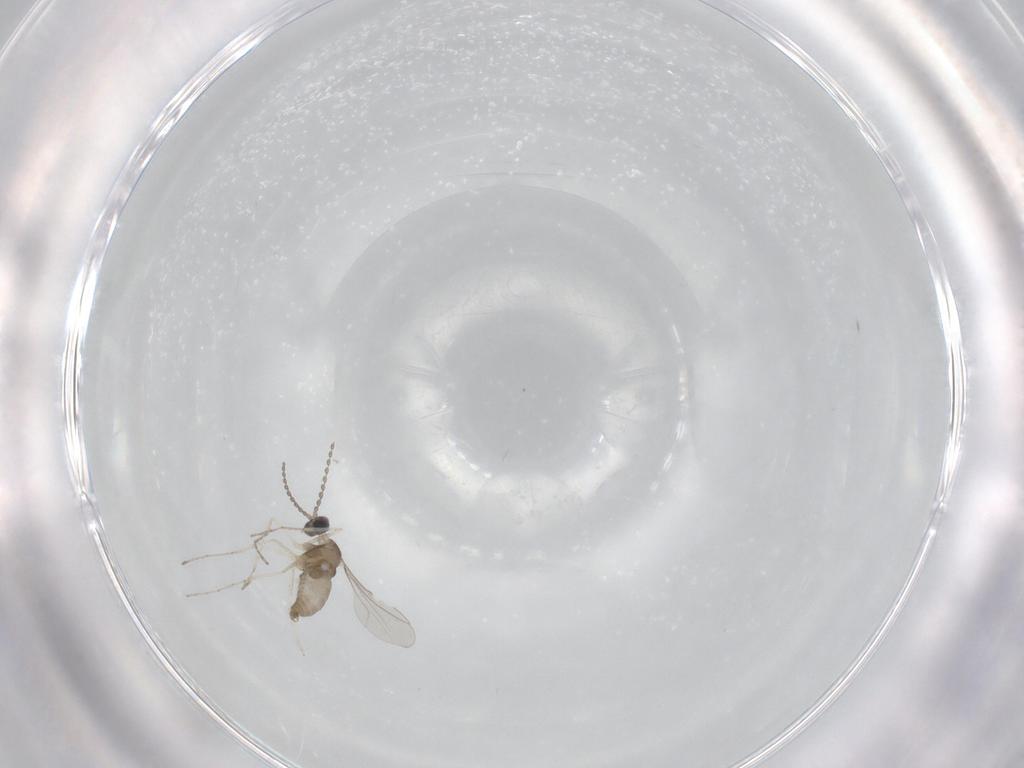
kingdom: Animalia
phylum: Arthropoda
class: Insecta
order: Diptera
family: Cecidomyiidae
